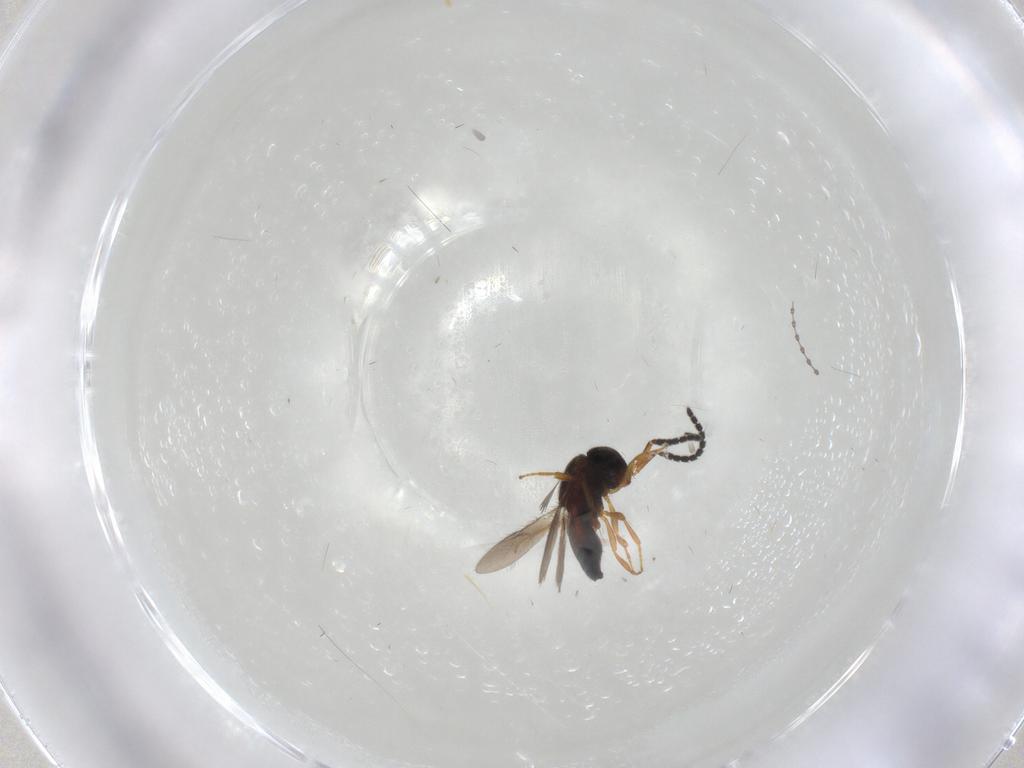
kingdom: Animalia
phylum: Arthropoda
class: Insecta
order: Hymenoptera
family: Scelionidae
